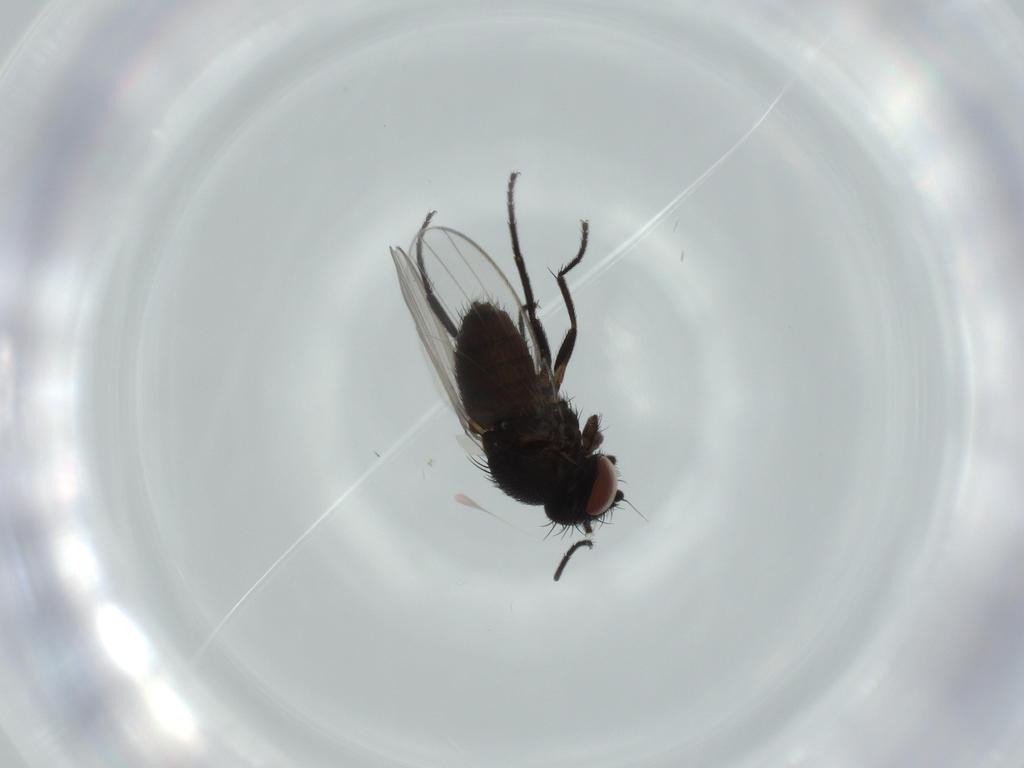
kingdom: Animalia
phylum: Arthropoda
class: Insecta
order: Diptera
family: Milichiidae
